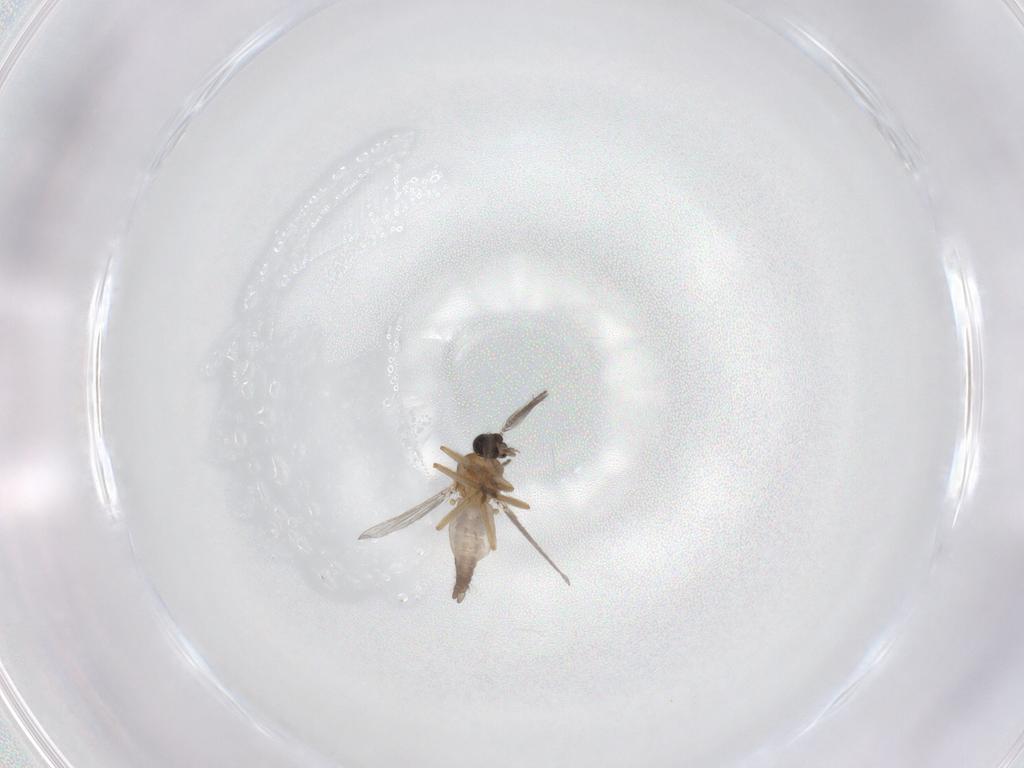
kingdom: Animalia
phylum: Arthropoda
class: Insecta
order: Diptera
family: Ceratopogonidae
